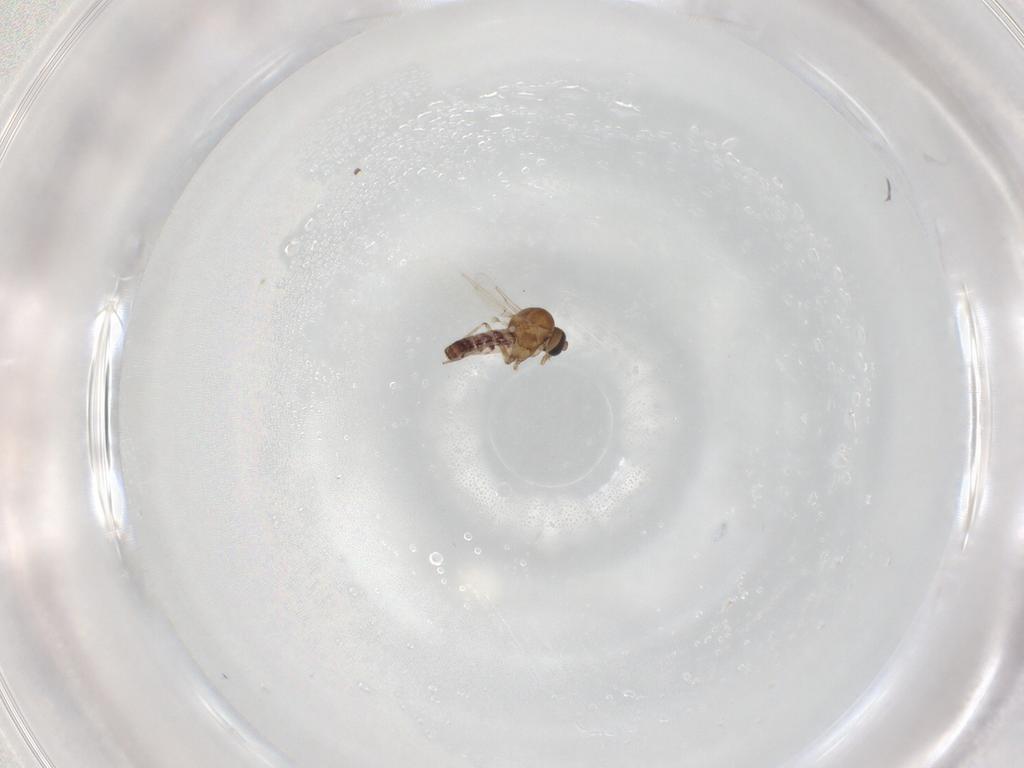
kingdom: Animalia
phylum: Arthropoda
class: Insecta
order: Diptera
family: Ceratopogonidae
